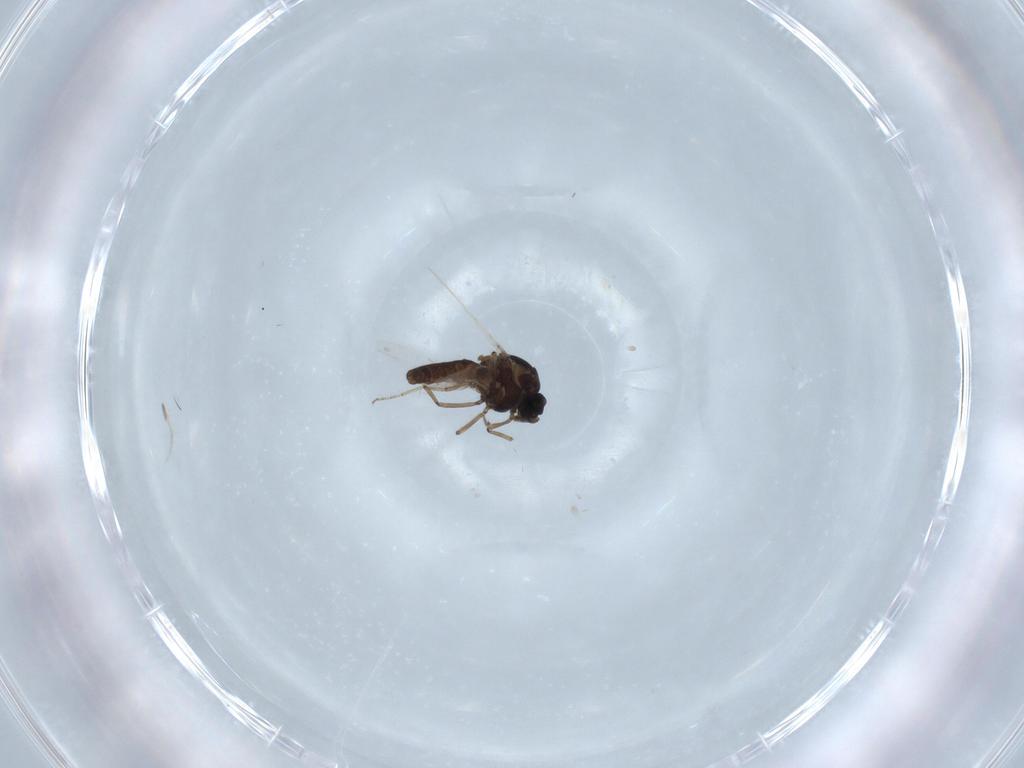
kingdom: Animalia
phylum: Arthropoda
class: Insecta
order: Diptera
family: Ceratopogonidae
